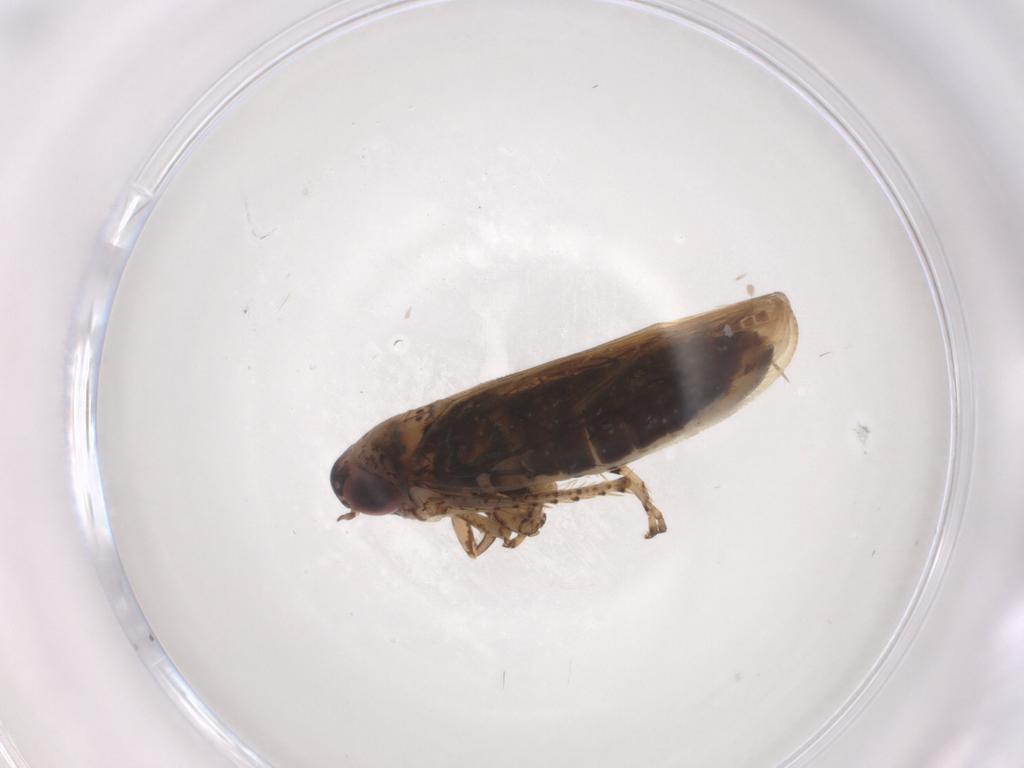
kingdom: Animalia
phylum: Arthropoda
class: Insecta
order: Hemiptera
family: Cicadellidae
